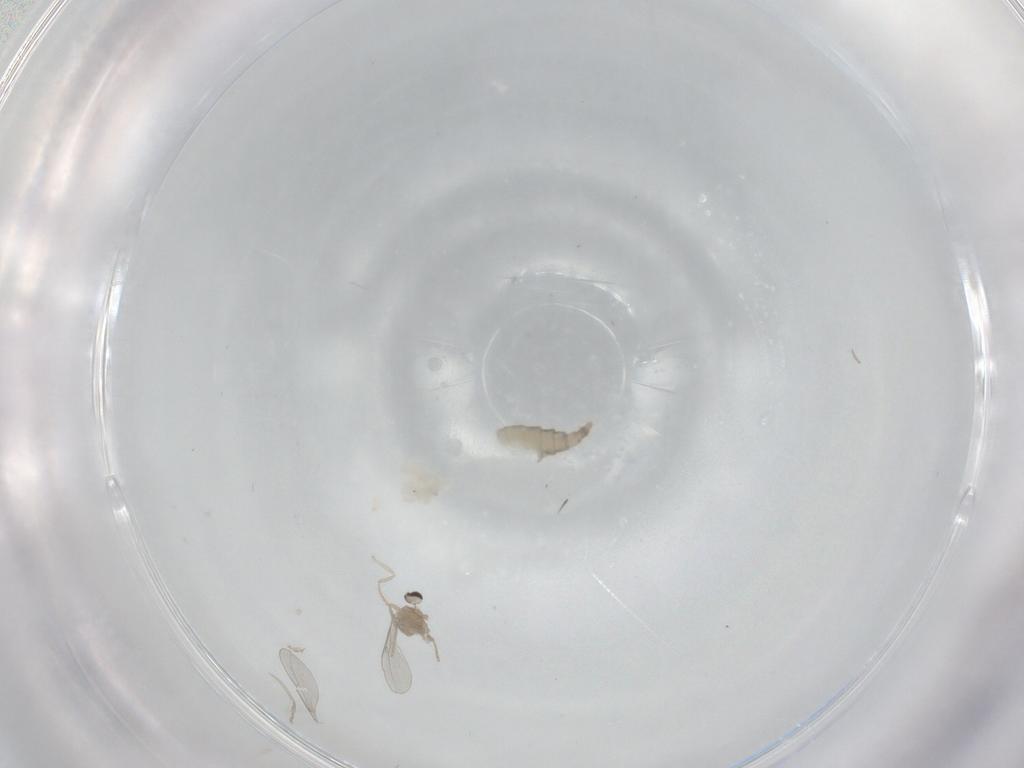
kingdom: Animalia
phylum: Arthropoda
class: Insecta
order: Diptera
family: Cecidomyiidae
